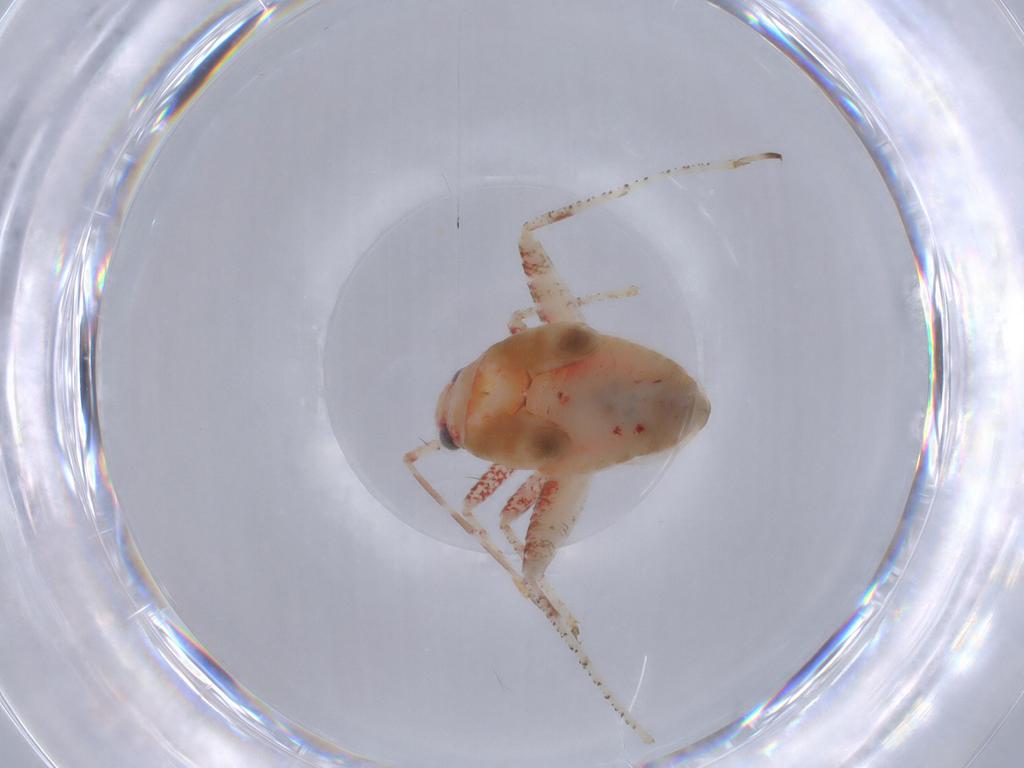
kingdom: Animalia
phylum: Arthropoda
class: Insecta
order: Hemiptera
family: Miridae
